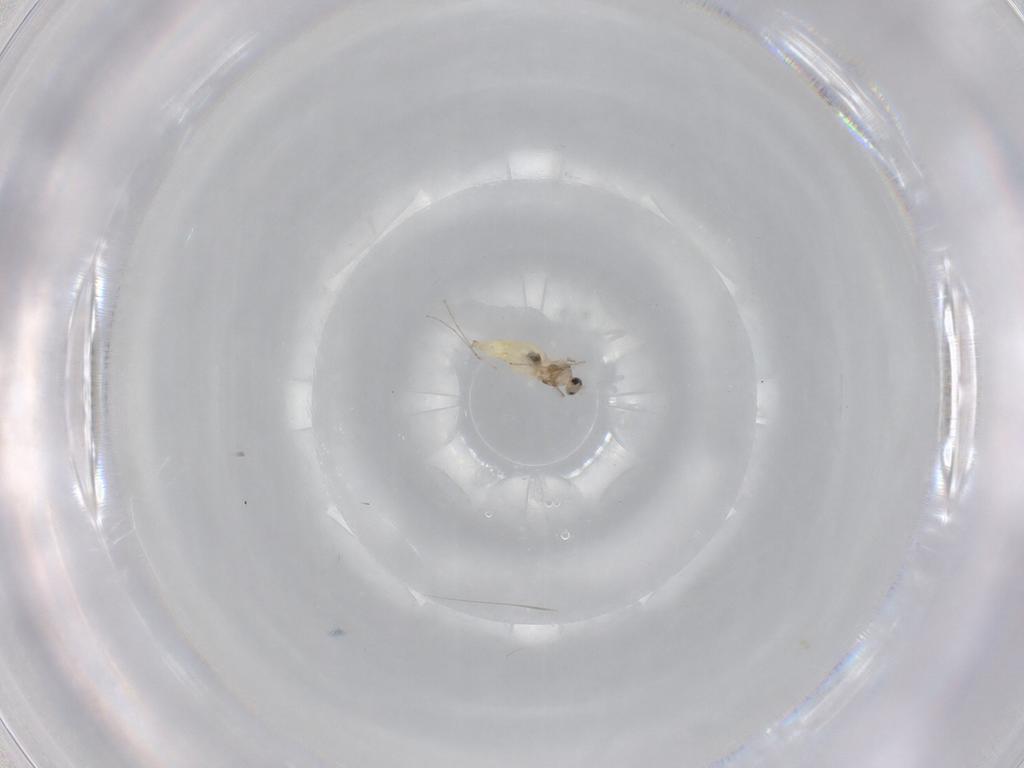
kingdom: Animalia
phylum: Arthropoda
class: Insecta
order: Diptera
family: Cecidomyiidae
